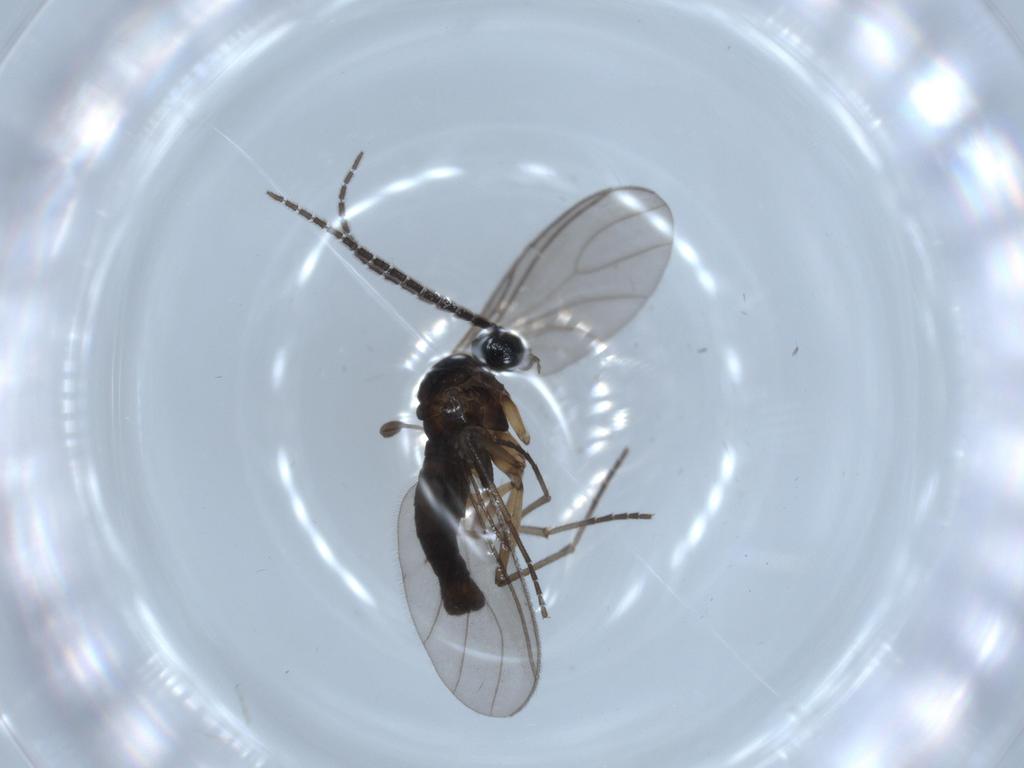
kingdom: Animalia
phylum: Arthropoda
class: Insecta
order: Diptera
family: Sciaridae
